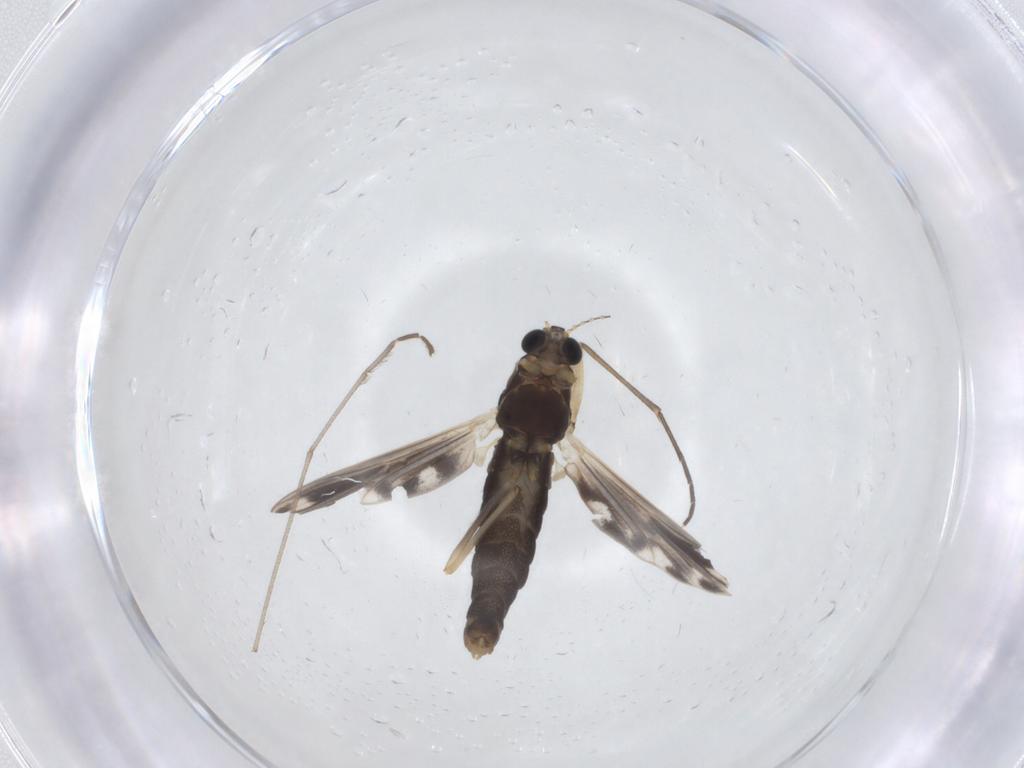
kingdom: Animalia
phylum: Arthropoda
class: Insecta
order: Diptera
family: Chironomidae
